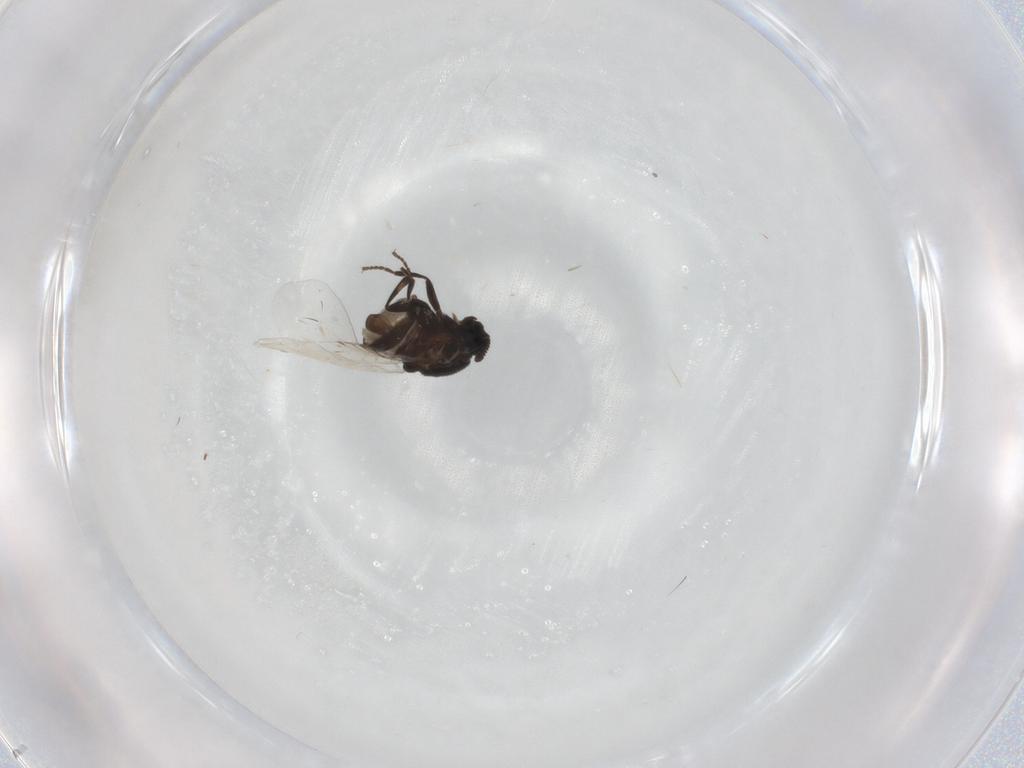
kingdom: Animalia
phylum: Arthropoda
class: Insecta
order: Diptera
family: Scatopsidae
